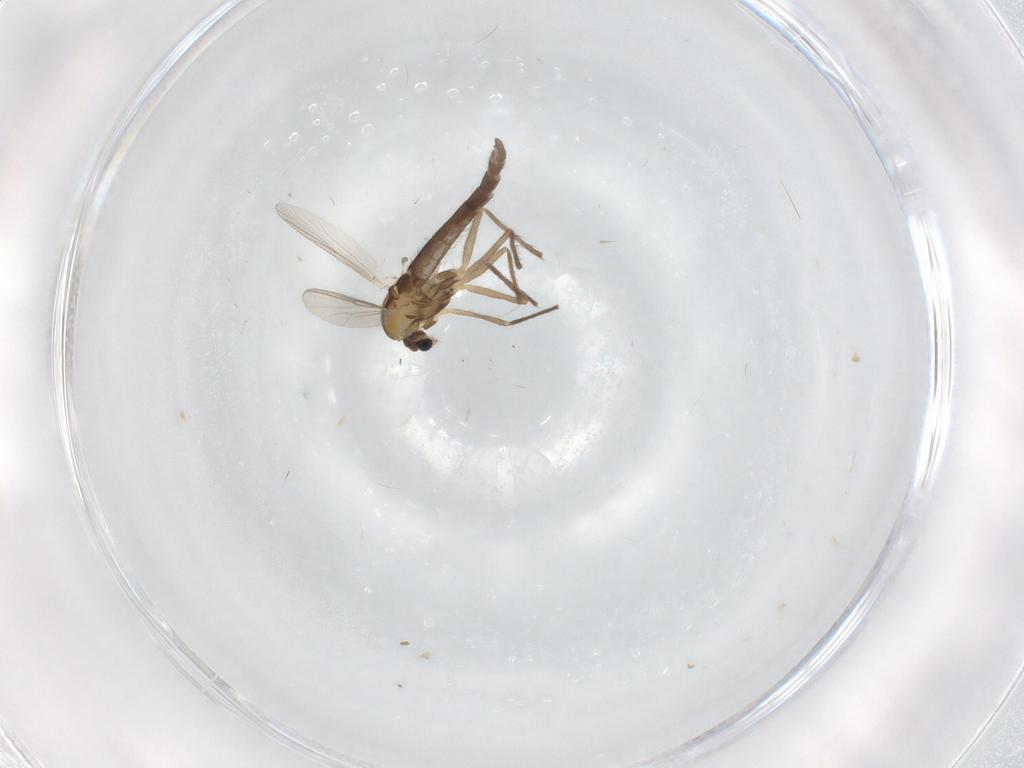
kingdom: Animalia
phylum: Arthropoda
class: Insecta
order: Diptera
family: Chironomidae
